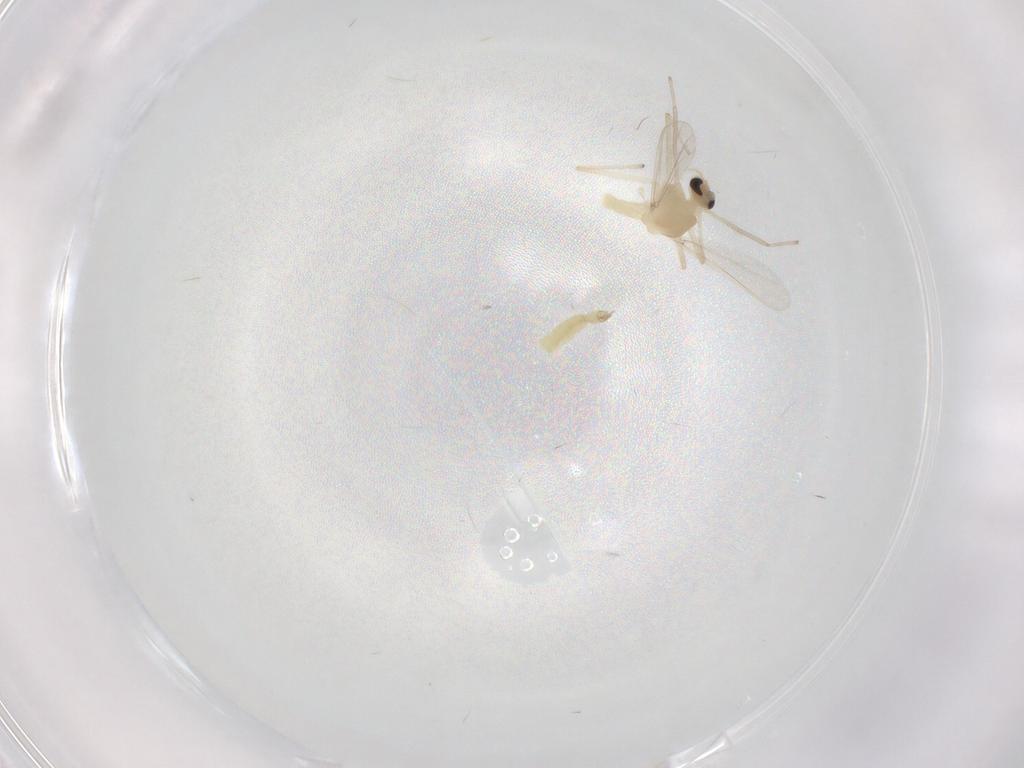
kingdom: Animalia
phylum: Arthropoda
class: Insecta
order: Diptera
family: Chironomidae
